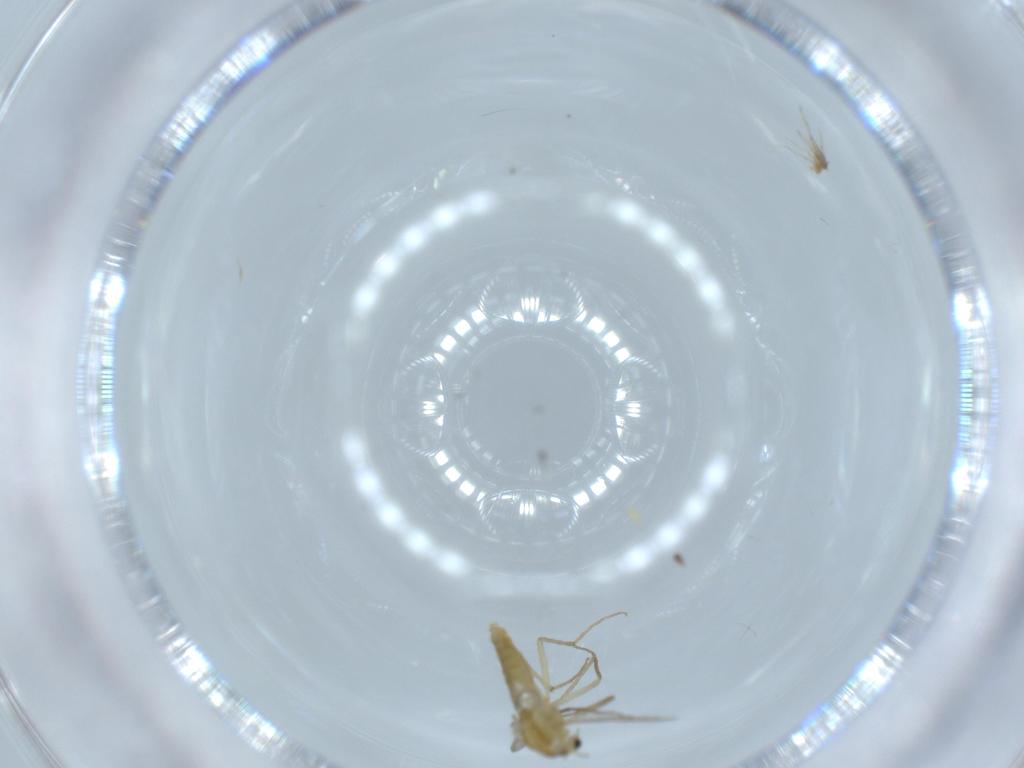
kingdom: Animalia
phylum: Arthropoda
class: Insecta
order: Diptera
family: Chironomidae
